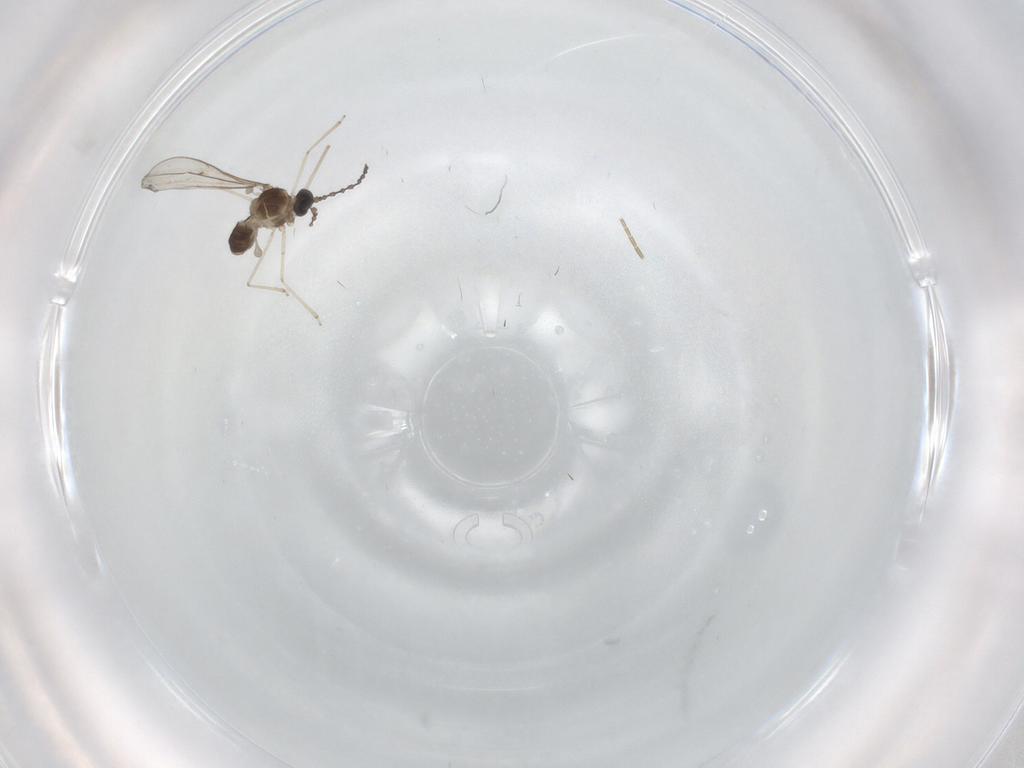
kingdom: Animalia
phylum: Arthropoda
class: Insecta
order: Diptera
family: Cecidomyiidae
